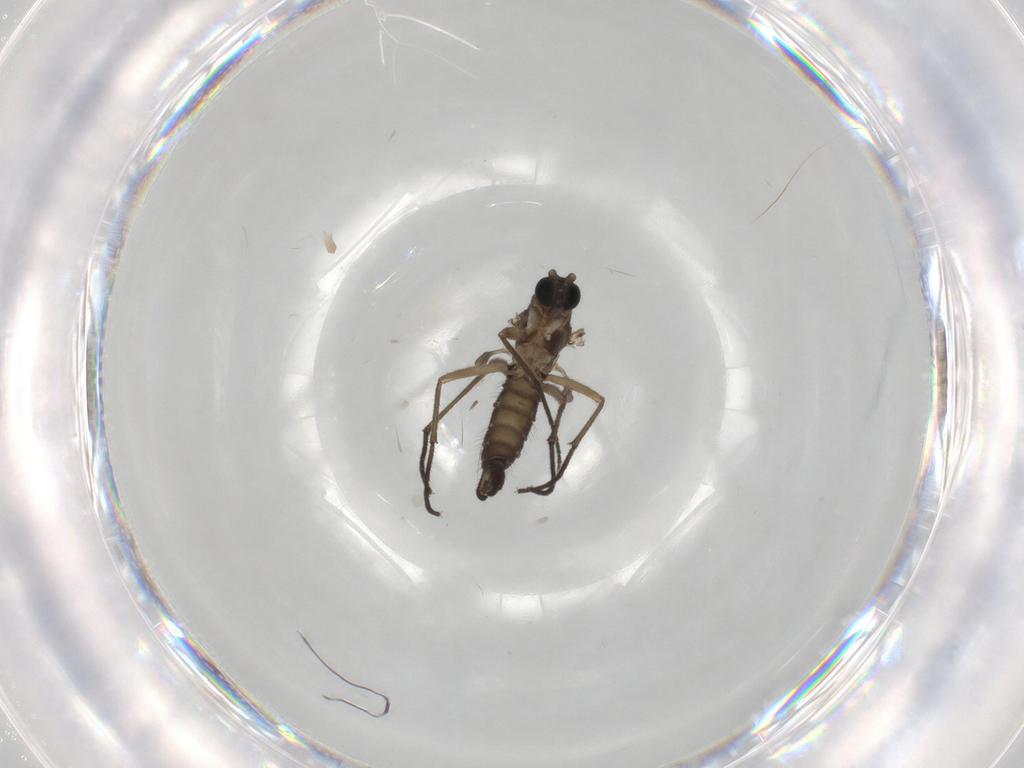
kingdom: Animalia
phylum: Arthropoda
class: Insecta
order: Diptera
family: Sciaridae
